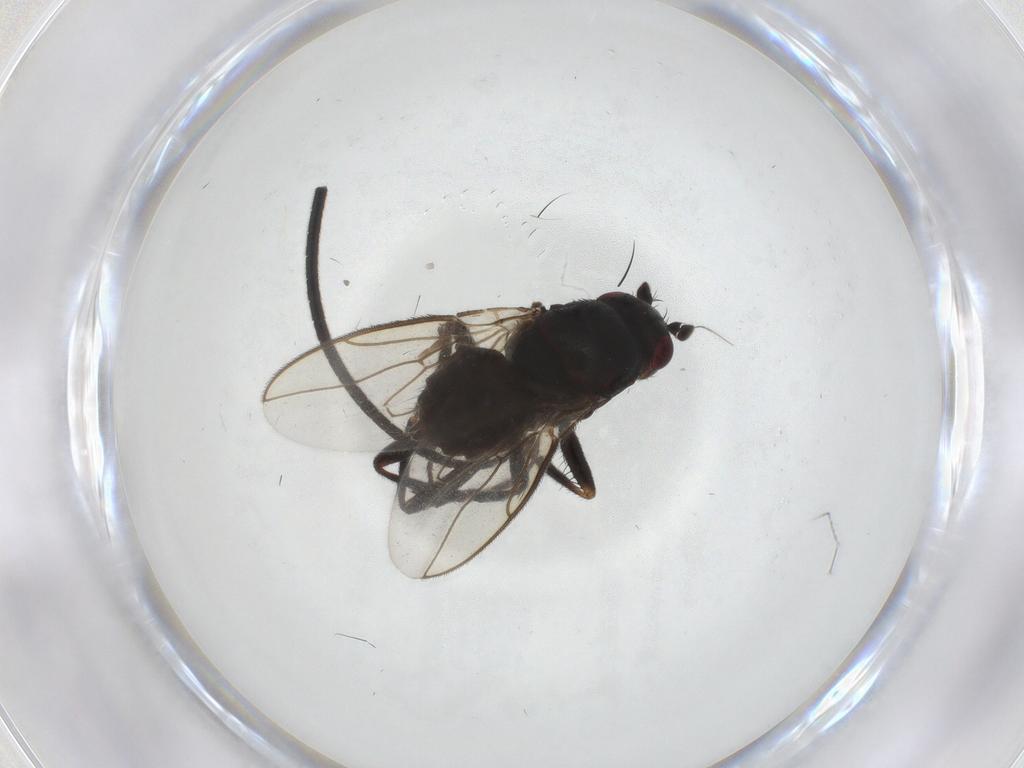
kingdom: Animalia
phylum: Arthropoda
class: Insecta
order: Diptera
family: Sphaeroceridae
